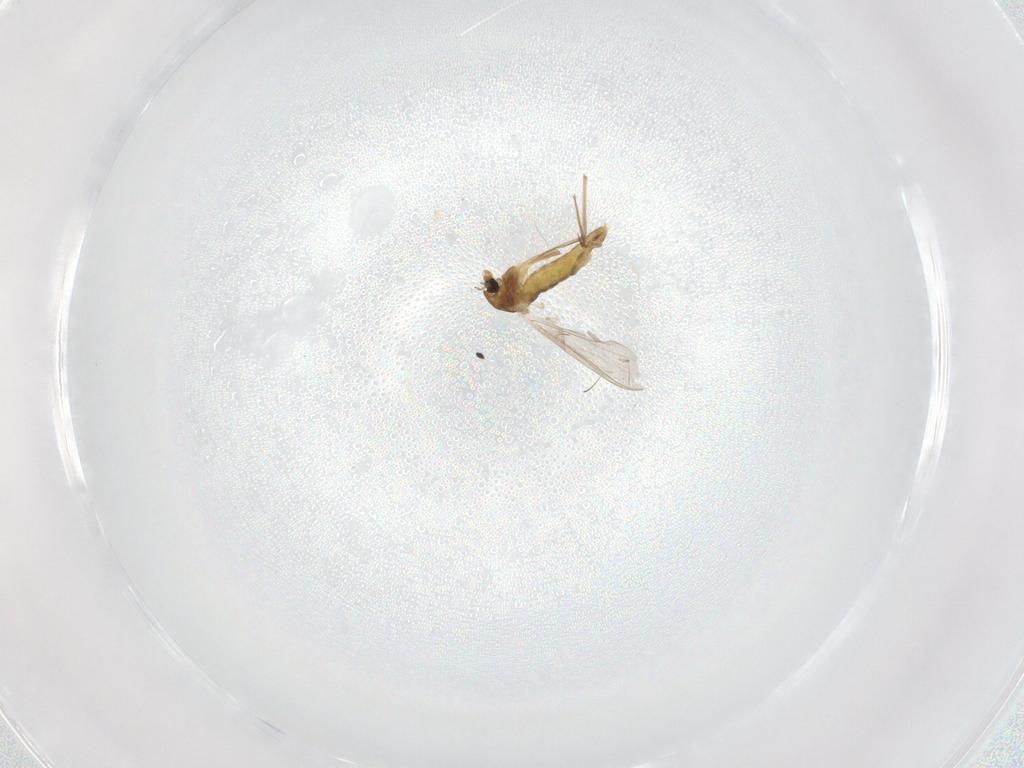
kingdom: Animalia
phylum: Arthropoda
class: Insecta
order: Diptera
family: Chironomidae
